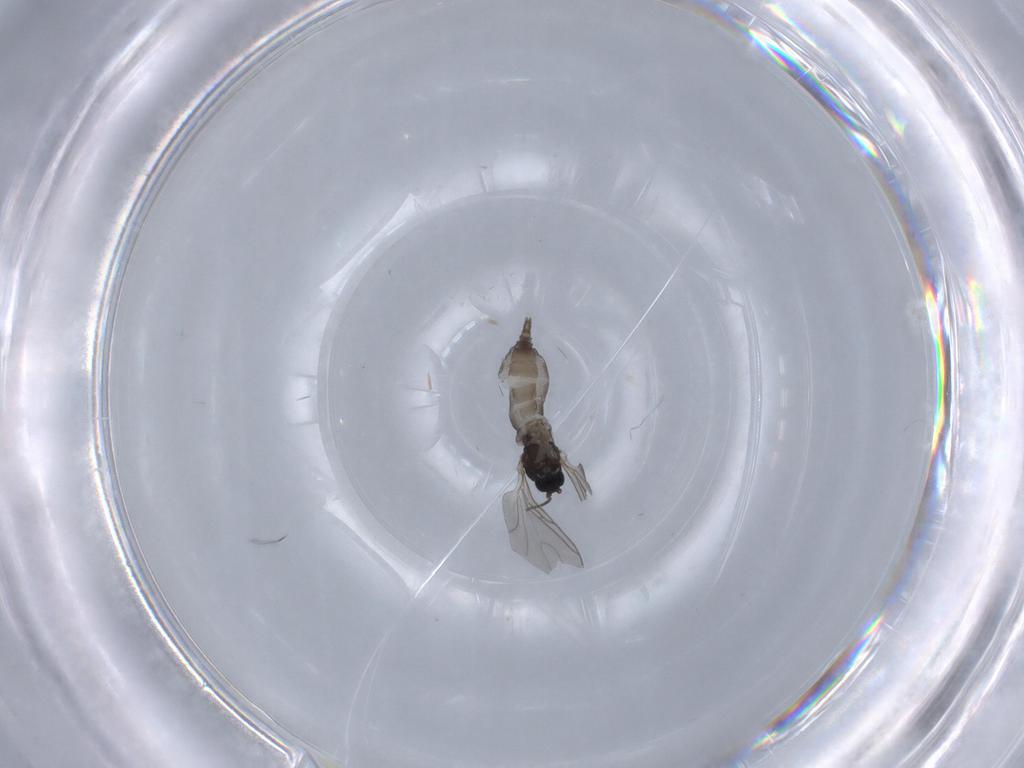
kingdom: Animalia
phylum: Arthropoda
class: Insecta
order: Diptera
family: Sciaridae
